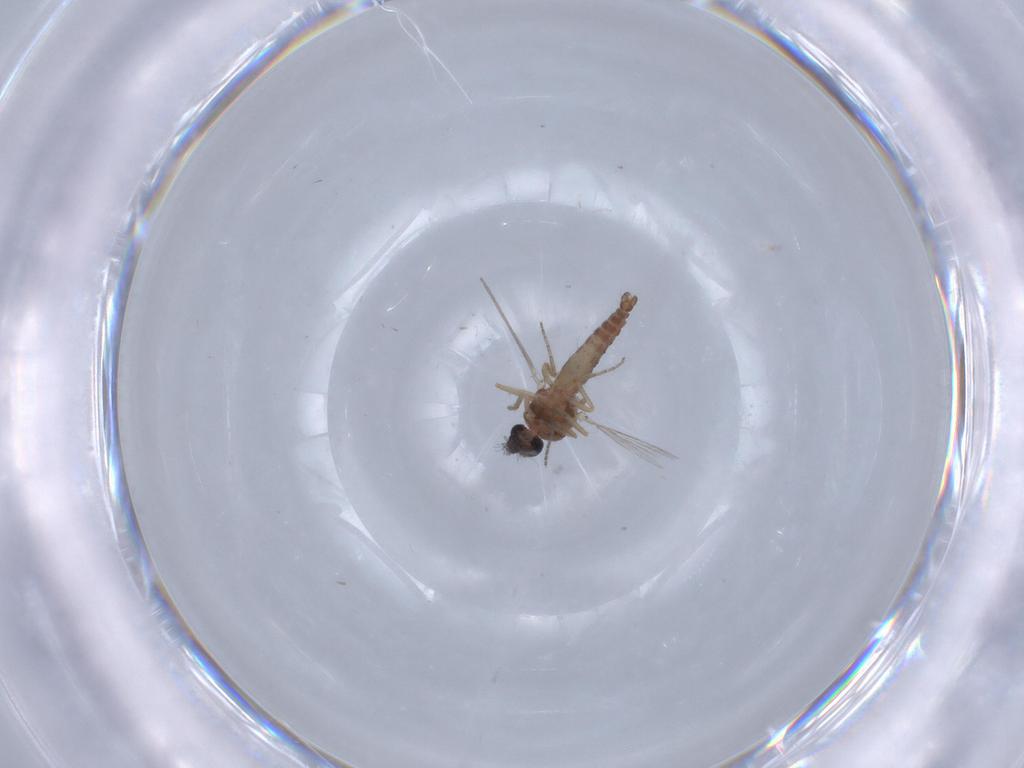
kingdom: Animalia
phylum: Arthropoda
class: Insecta
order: Diptera
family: Ceratopogonidae
